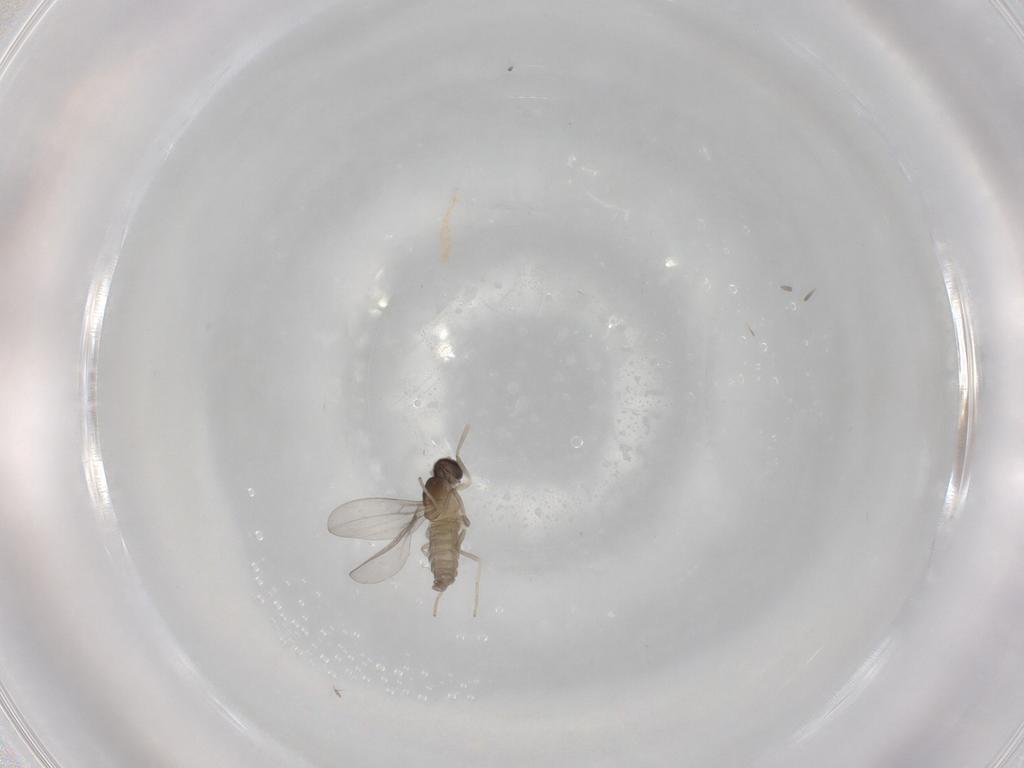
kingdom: Animalia
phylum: Arthropoda
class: Insecta
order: Diptera
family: Cecidomyiidae
